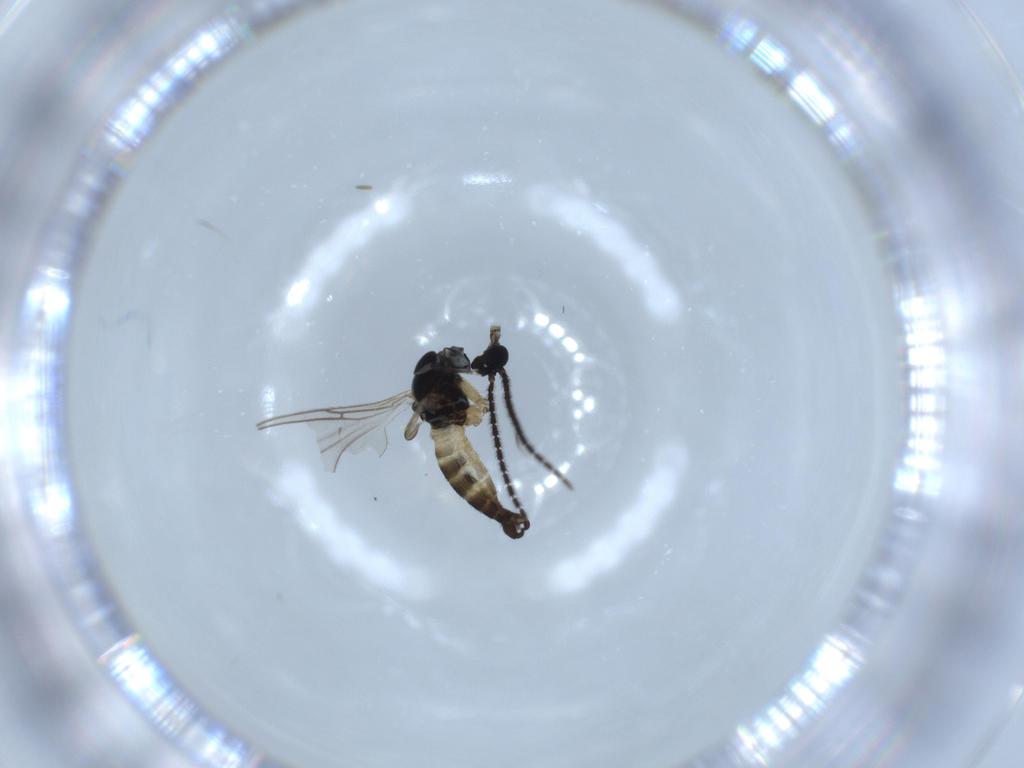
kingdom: Animalia
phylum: Arthropoda
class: Insecta
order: Diptera
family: Sciaridae
